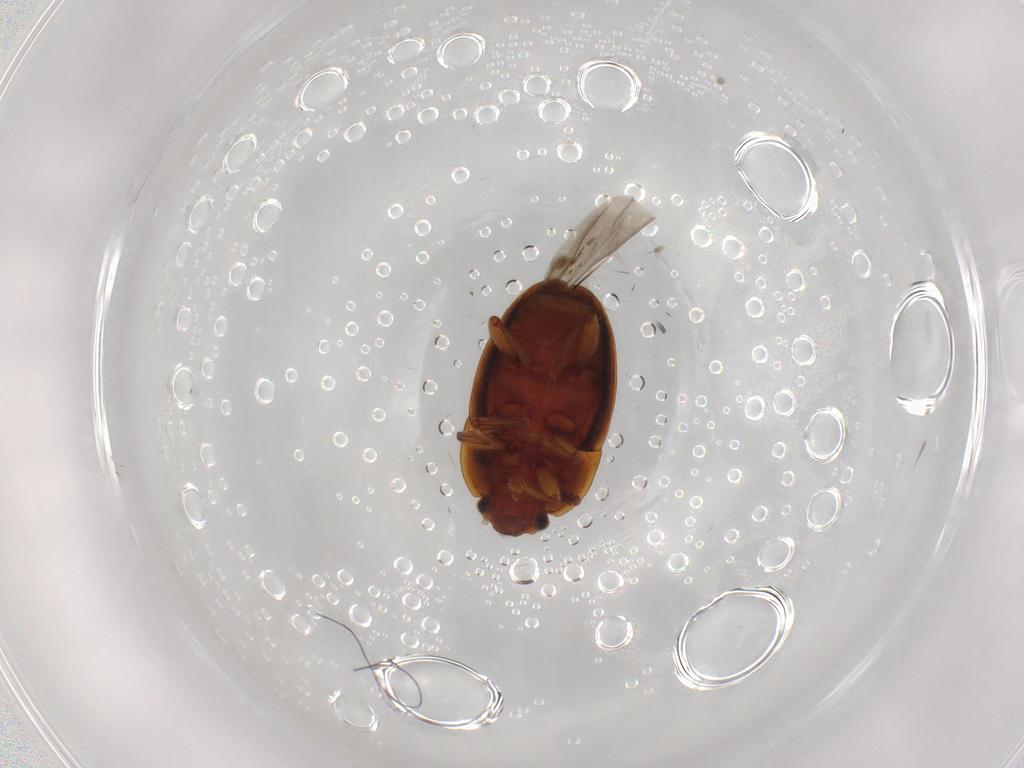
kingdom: Animalia
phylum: Arthropoda
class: Insecta
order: Coleoptera
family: Nitidulidae
